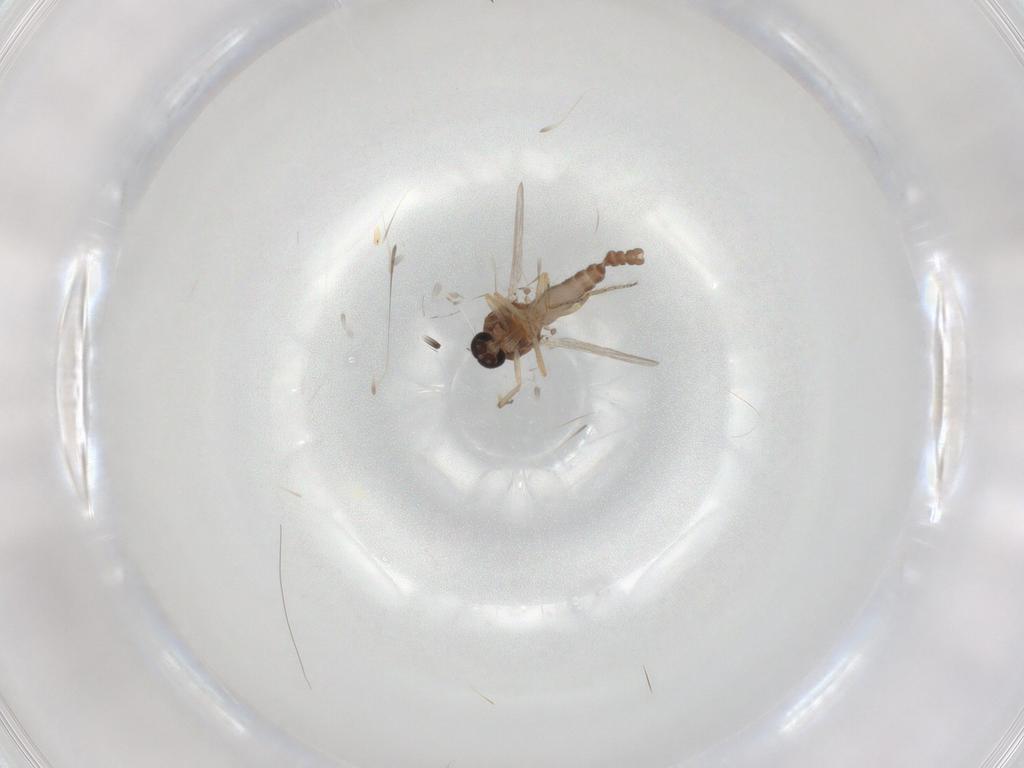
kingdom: Animalia
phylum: Arthropoda
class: Insecta
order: Diptera
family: Ceratopogonidae
